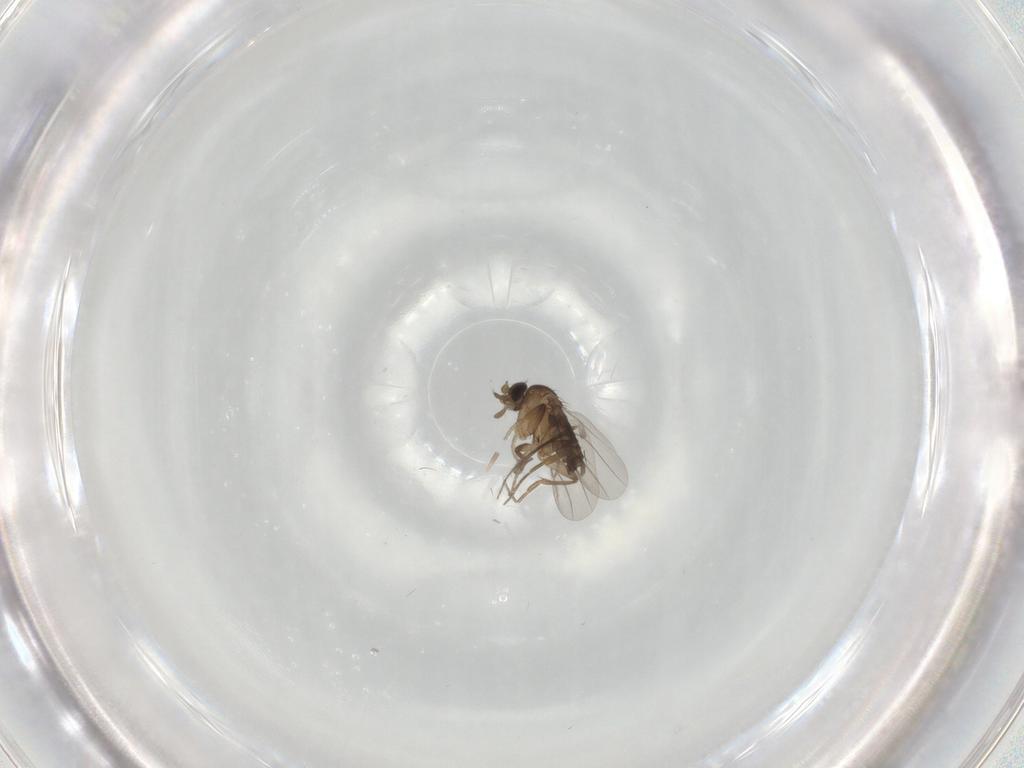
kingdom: Animalia
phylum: Arthropoda
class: Insecta
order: Diptera
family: Phoridae
